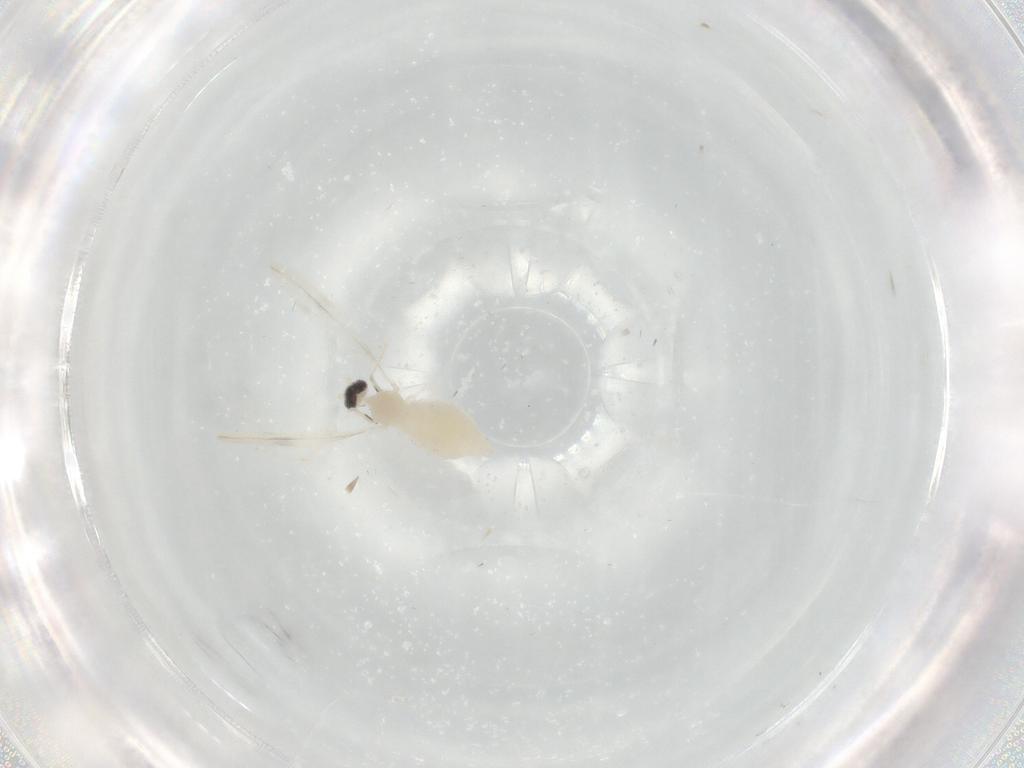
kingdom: Animalia
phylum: Arthropoda
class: Insecta
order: Diptera
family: Cecidomyiidae
